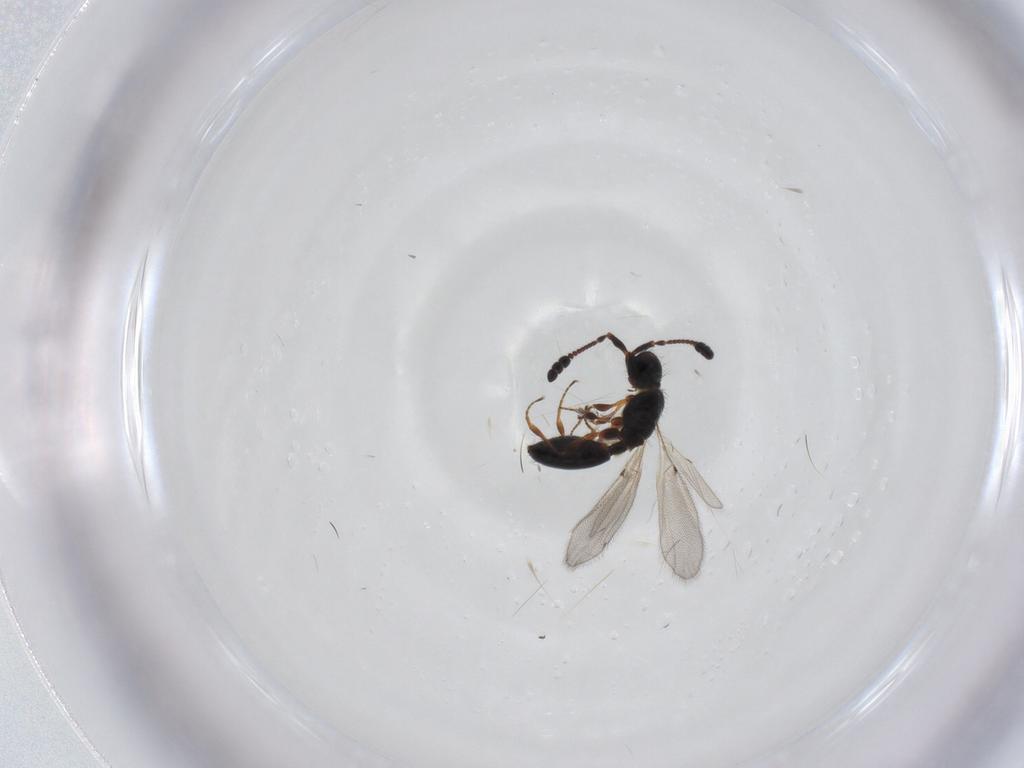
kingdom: Animalia
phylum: Arthropoda
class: Insecta
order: Hymenoptera
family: Diapriidae
